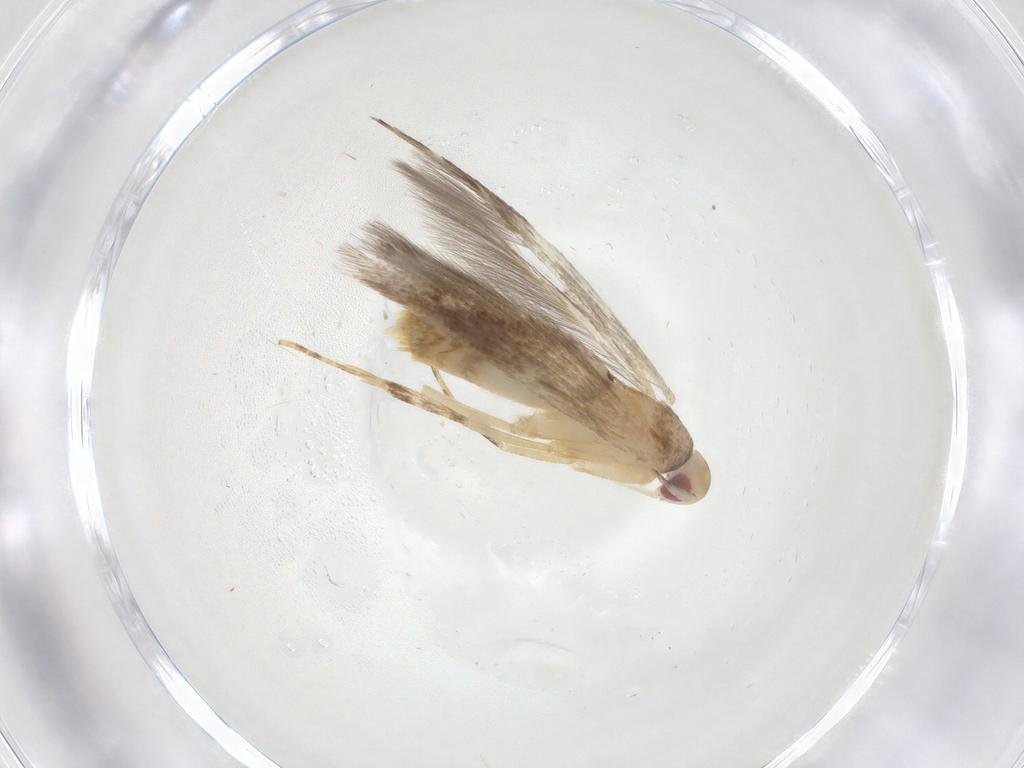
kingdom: Animalia
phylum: Arthropoda
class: Insecta
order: Lepidoptera
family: Cosmopterigidae
